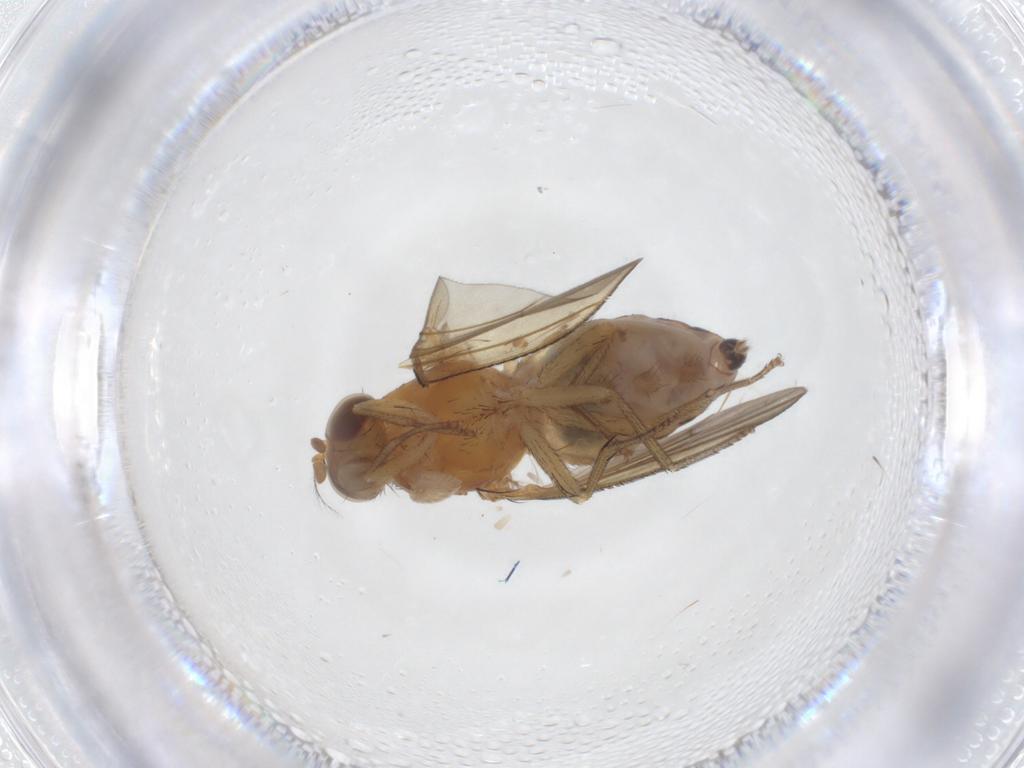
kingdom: Animalia
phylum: Arthropoda
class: Insecta
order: Diptera
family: Lauxaniidae
